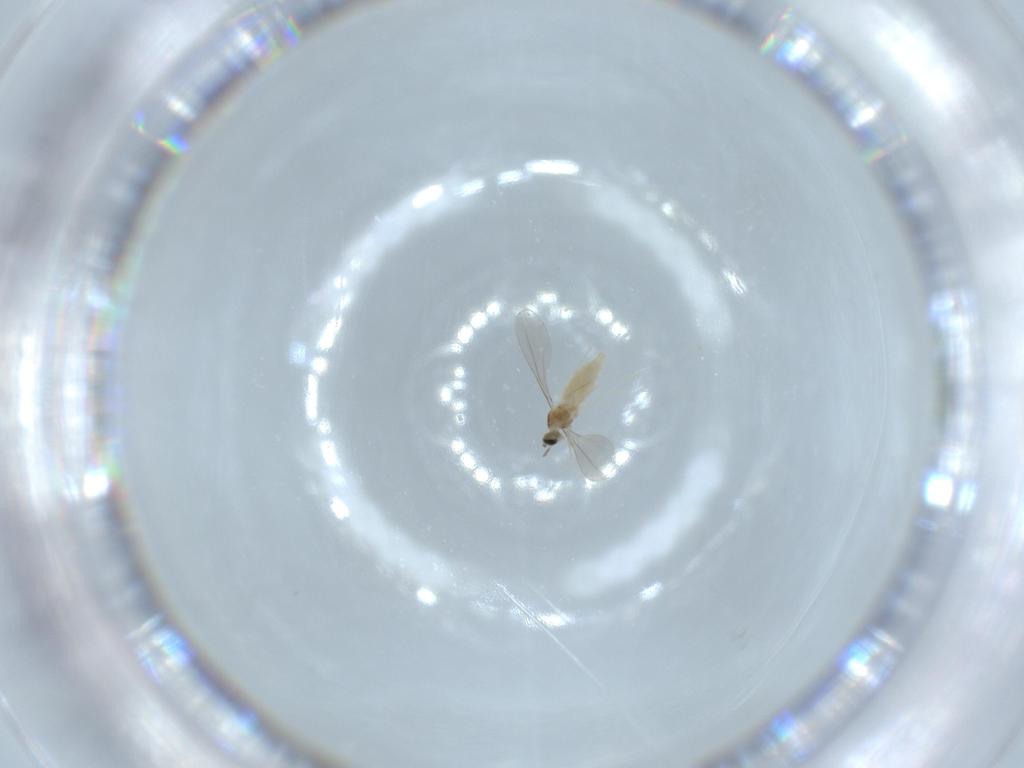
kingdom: Animalia
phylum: Arthropoda
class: Insecta
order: Diptera
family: Cecidomyiidae
